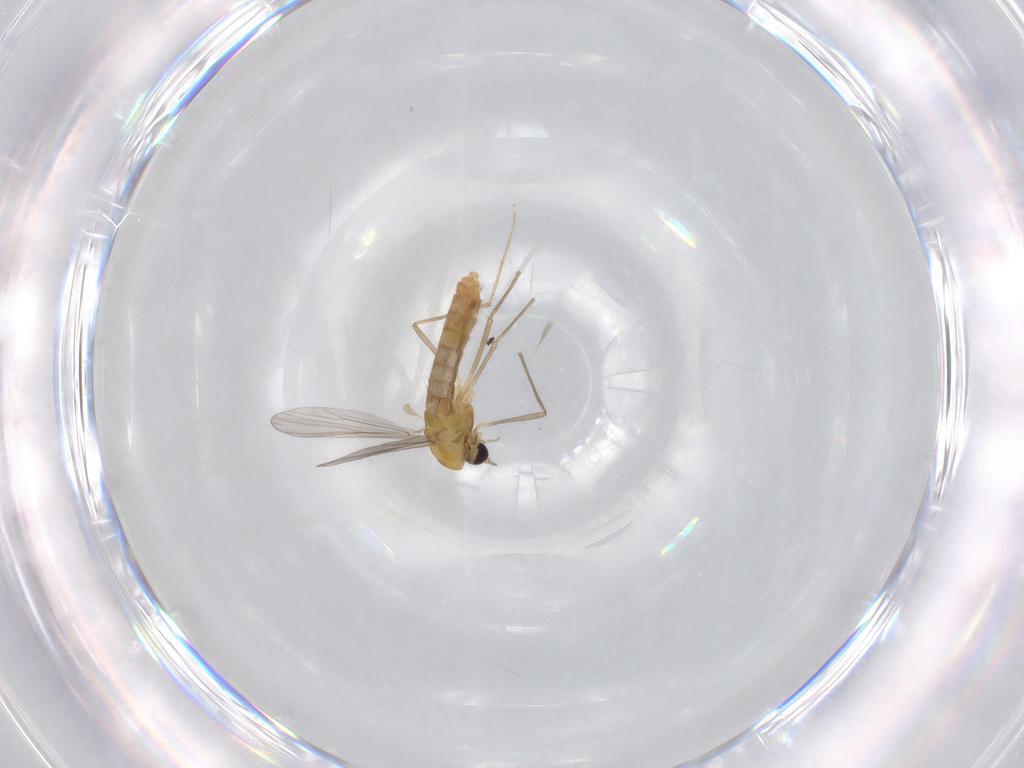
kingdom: Animalia
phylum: Arthropoda
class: Insecta
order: Diptera
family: Chironomidae
